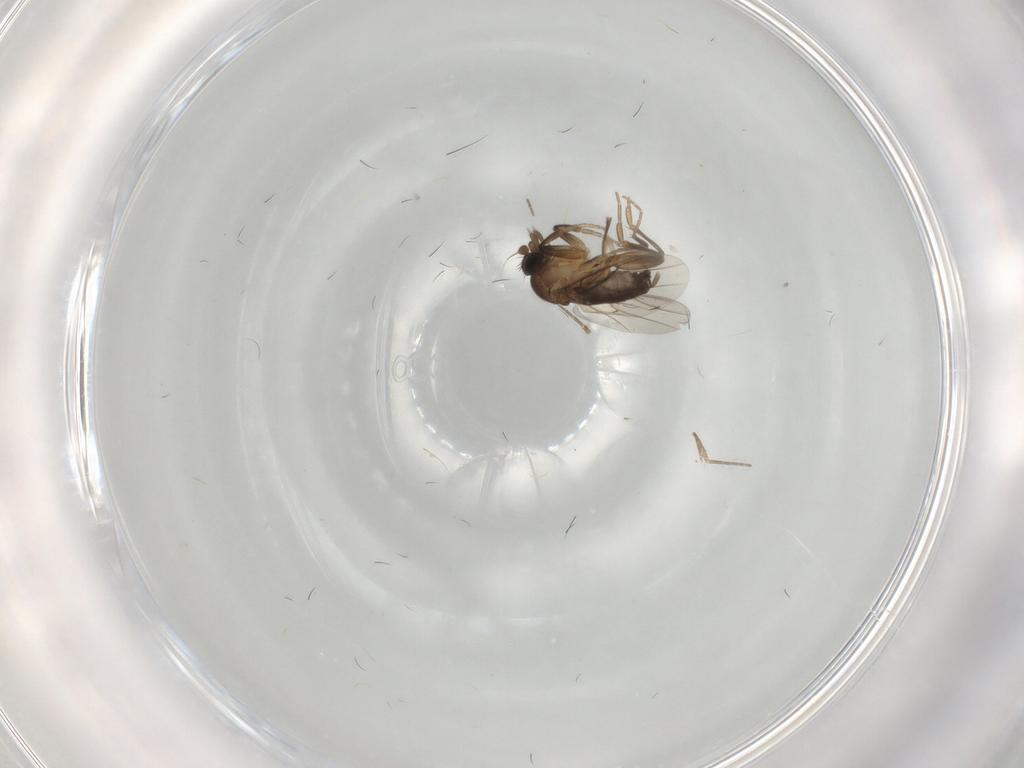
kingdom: Animalia
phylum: Arthropoda
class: Insecta
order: Diptera
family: Phoridae
